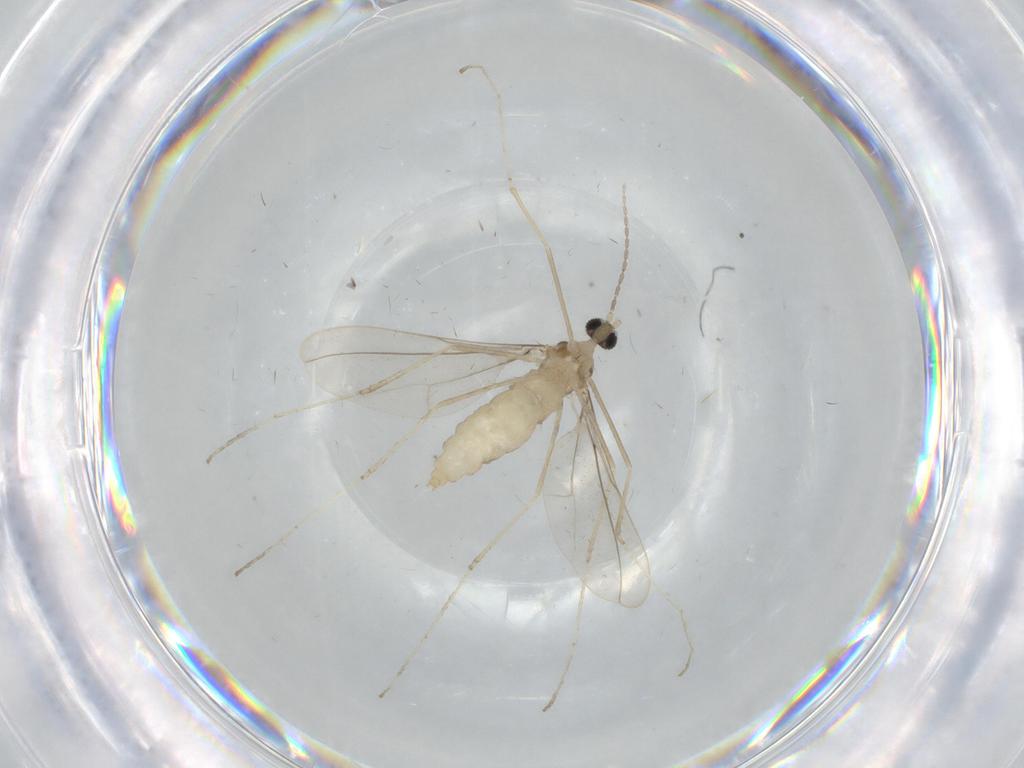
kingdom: Animalia
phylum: Arthropoda
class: Insecta
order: Diptera
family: Cecidomyiidae
